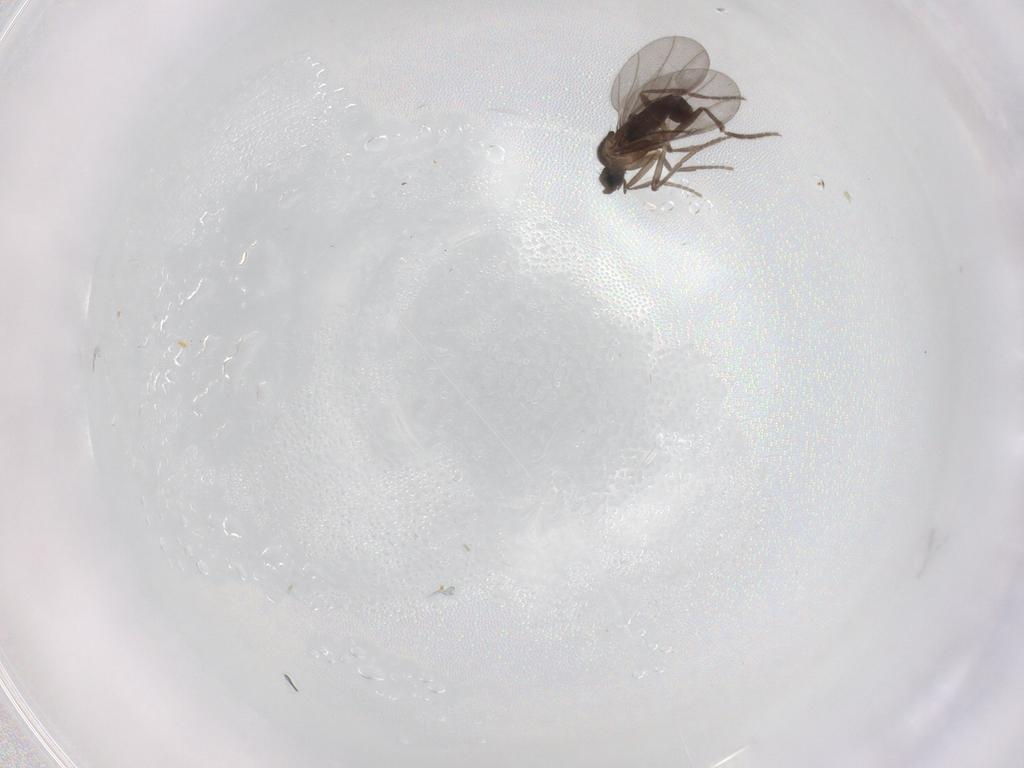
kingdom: Animalia
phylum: Arthropoda
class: Insecta
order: Diptera
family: Phoridae
